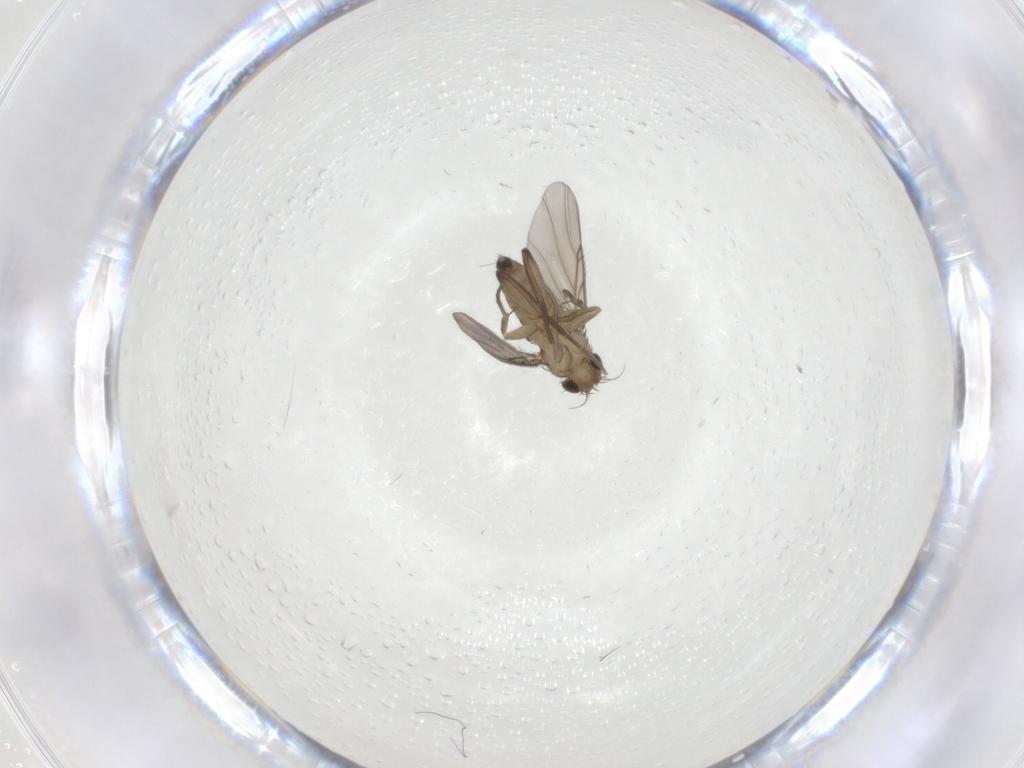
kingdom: Animalia
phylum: Arthropoda
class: Insecta
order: Diptera
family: Phoridae
